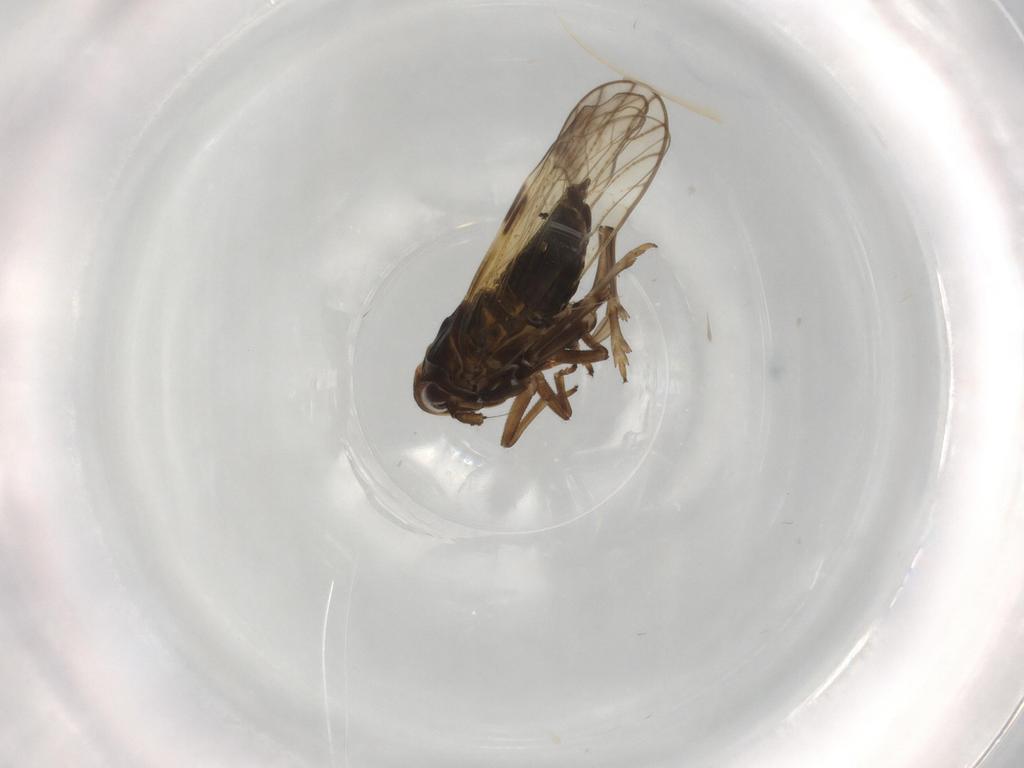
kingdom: Animalia
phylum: Arthropoda
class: Insecta
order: Hemiptera
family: Delphacidae
